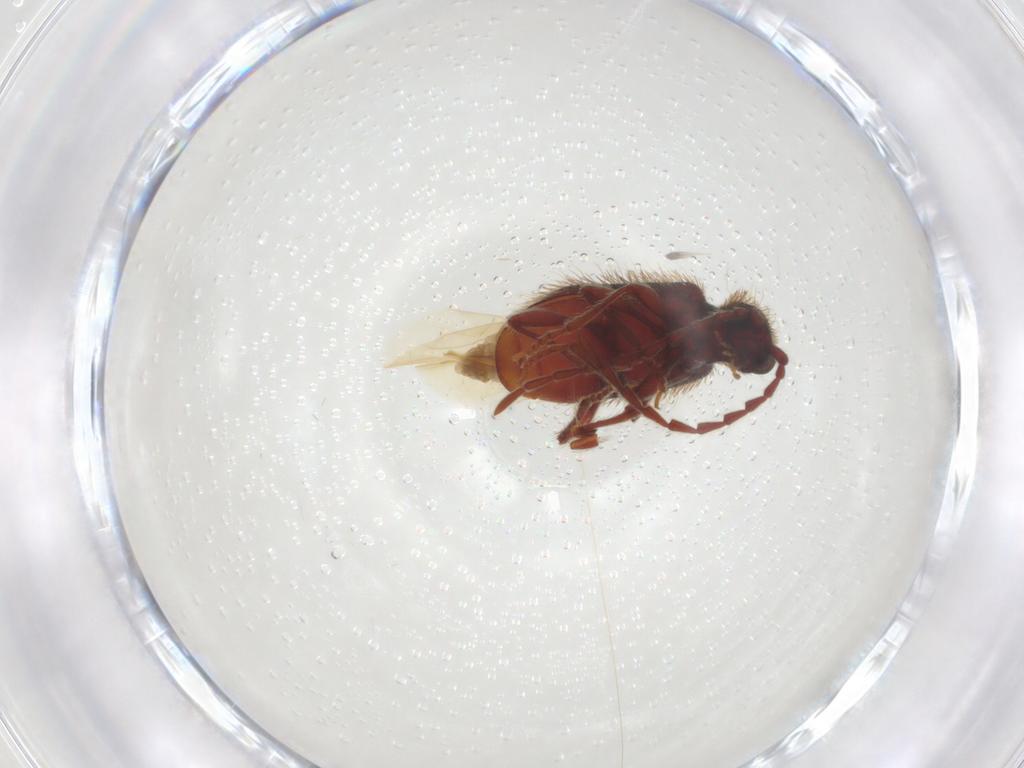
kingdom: Animalia
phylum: Arthropoda
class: Insecta
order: Coleoptera
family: Ptinidae
